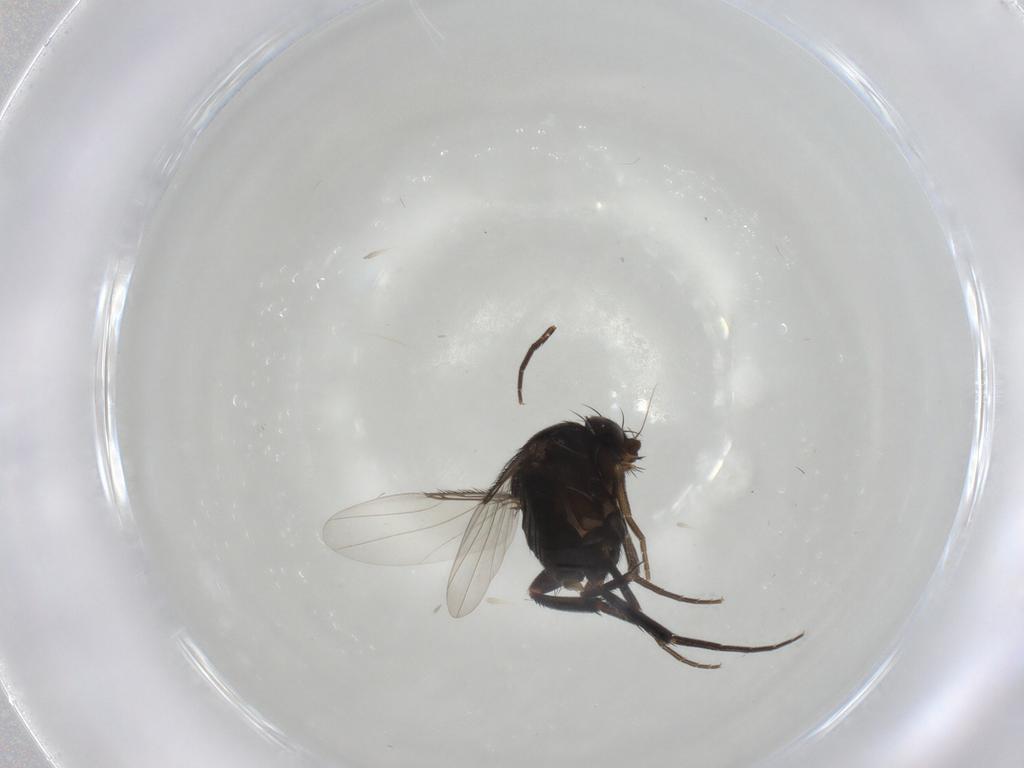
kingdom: Animalia
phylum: Arthropoda
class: Insecta
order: Diptera
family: Phoridae
